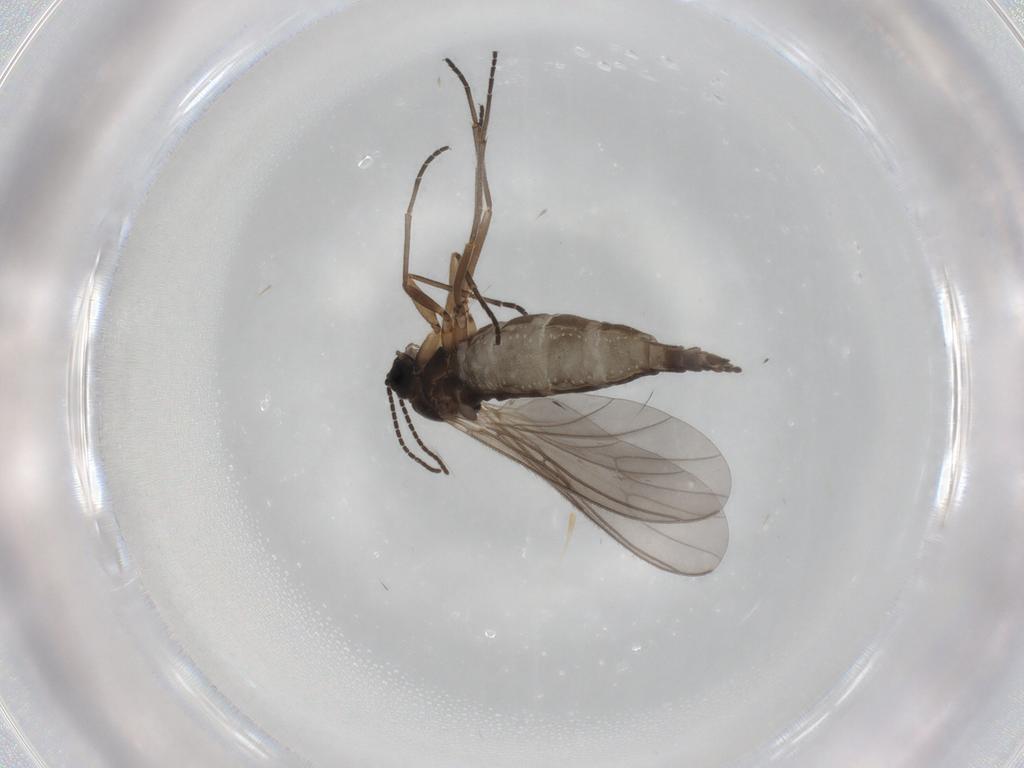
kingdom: Animalia
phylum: Arthropoda
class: Insecta
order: Diptera
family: Sciaridae
